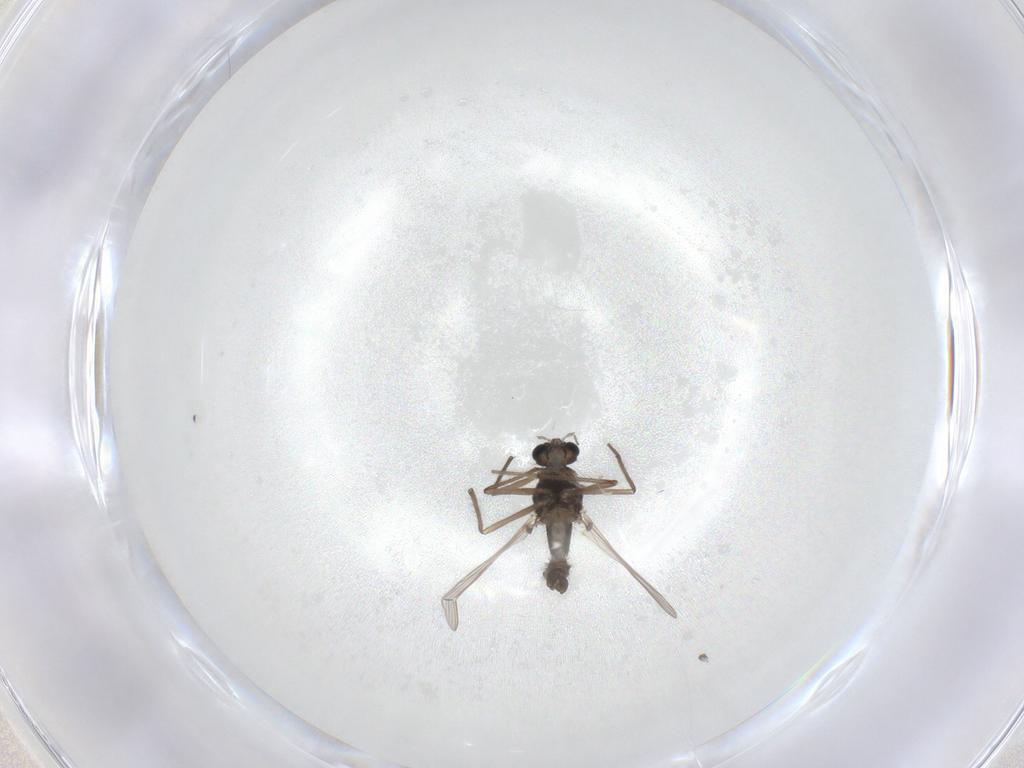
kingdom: Animalia
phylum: Arthropoda
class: Insecta
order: Diptera
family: Chironomidae
